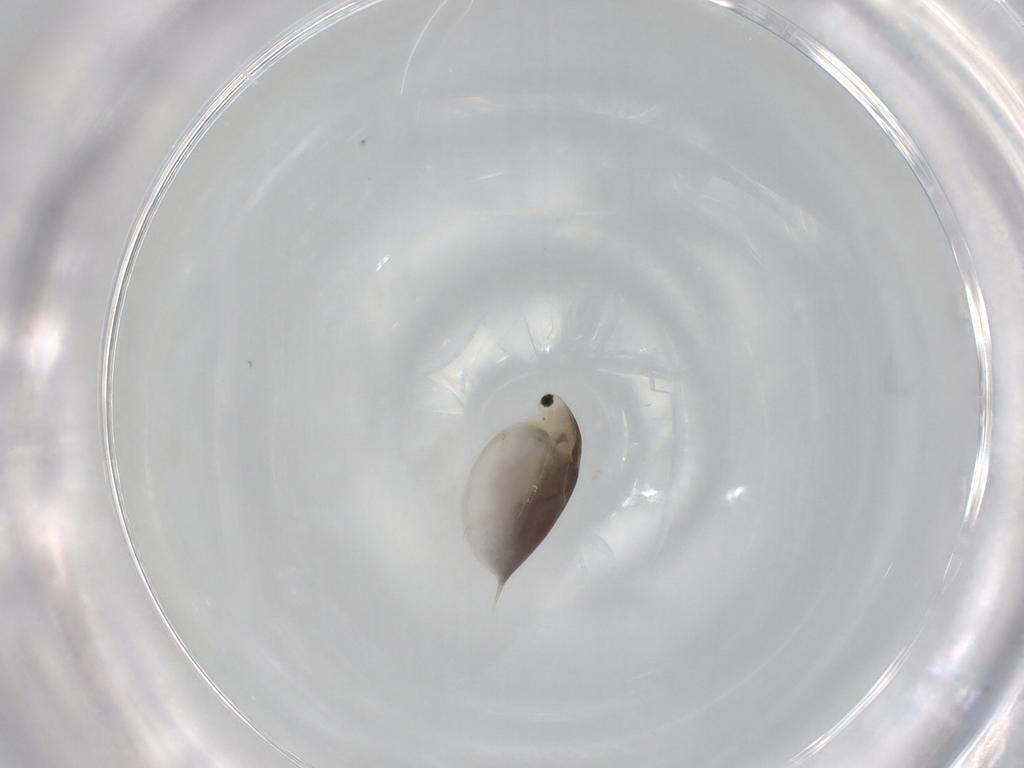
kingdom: Animalia
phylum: Arthropoda
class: Branchiopoda
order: Diplostraca
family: Daphniidae
